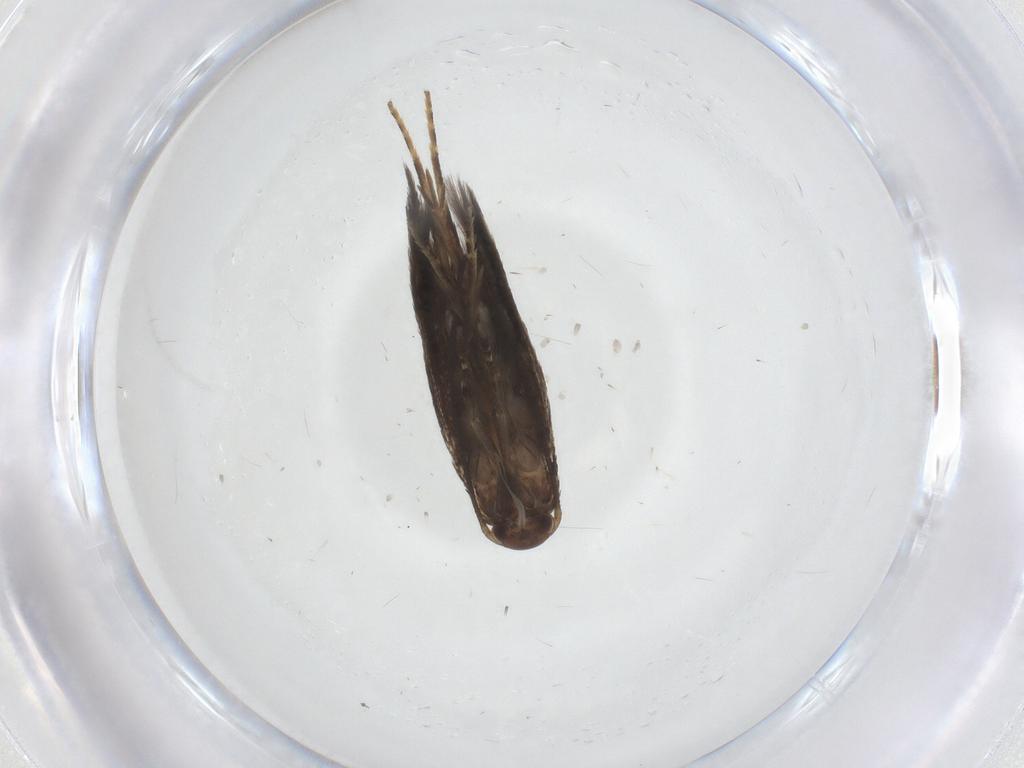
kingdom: Animalia
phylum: Arthropoda
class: Insecta
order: Lepidoptera
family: Elachistidae
